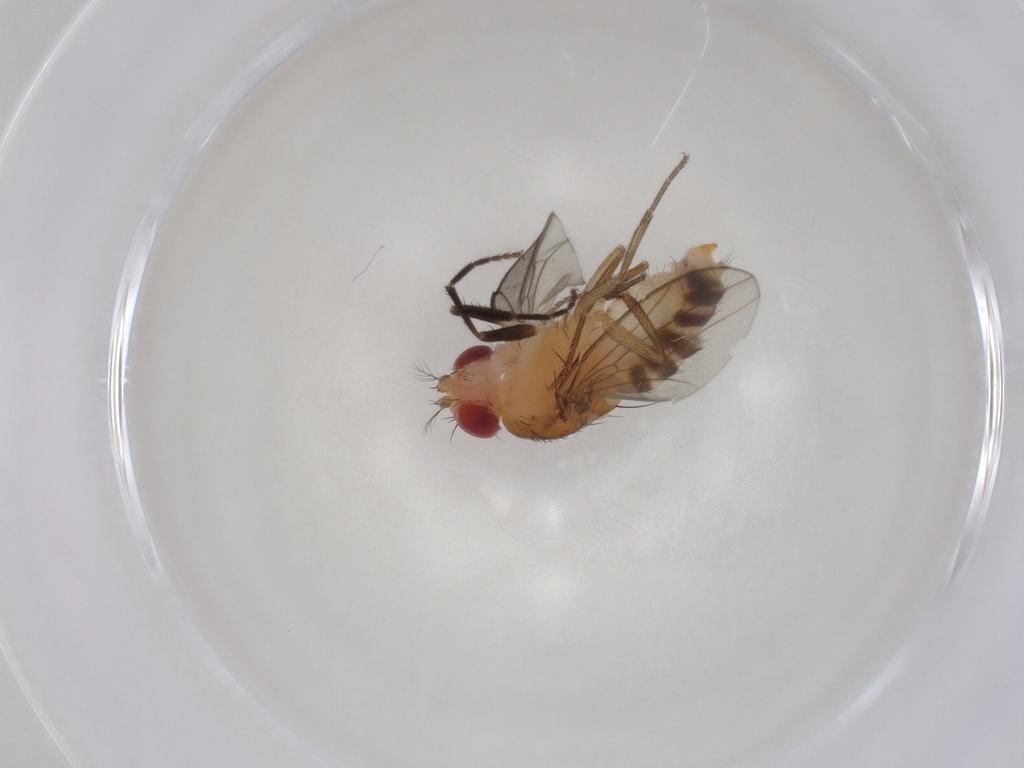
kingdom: Animalia
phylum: Arthropoda
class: Insecta
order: Diptera
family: Drosophilidae
